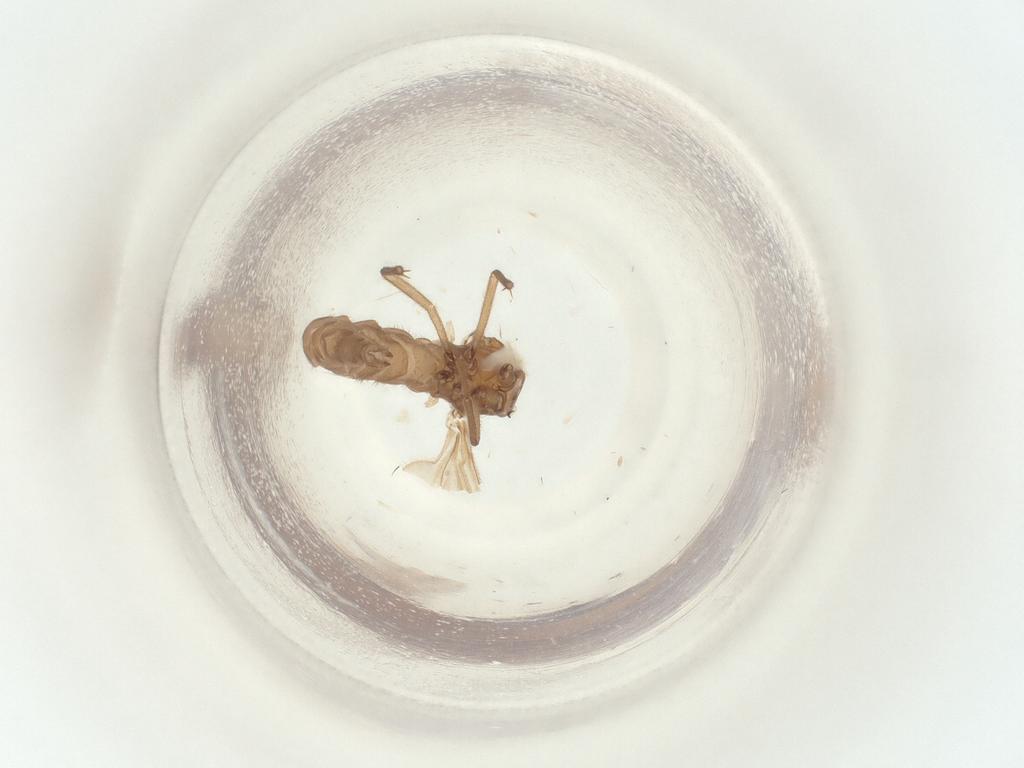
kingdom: Animalia
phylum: Arthropoda
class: Insecta
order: Diptera
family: Sciaridae
